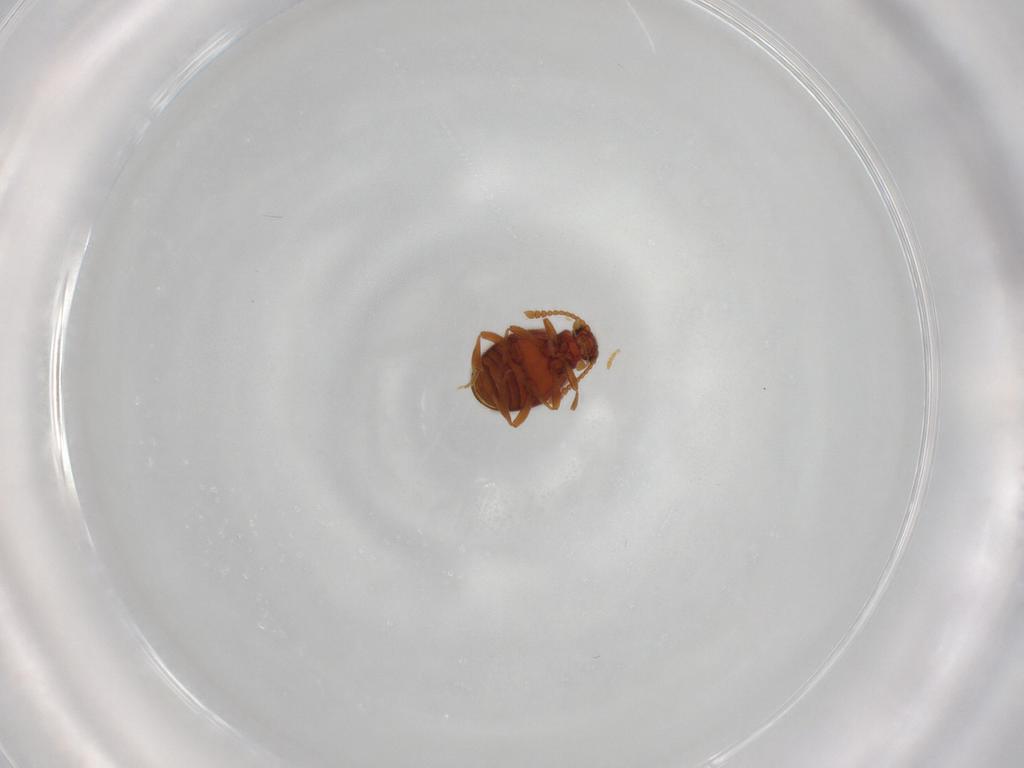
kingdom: Animalia
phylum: Arthropoda
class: Insecta
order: Coleoptera
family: Aderidae
